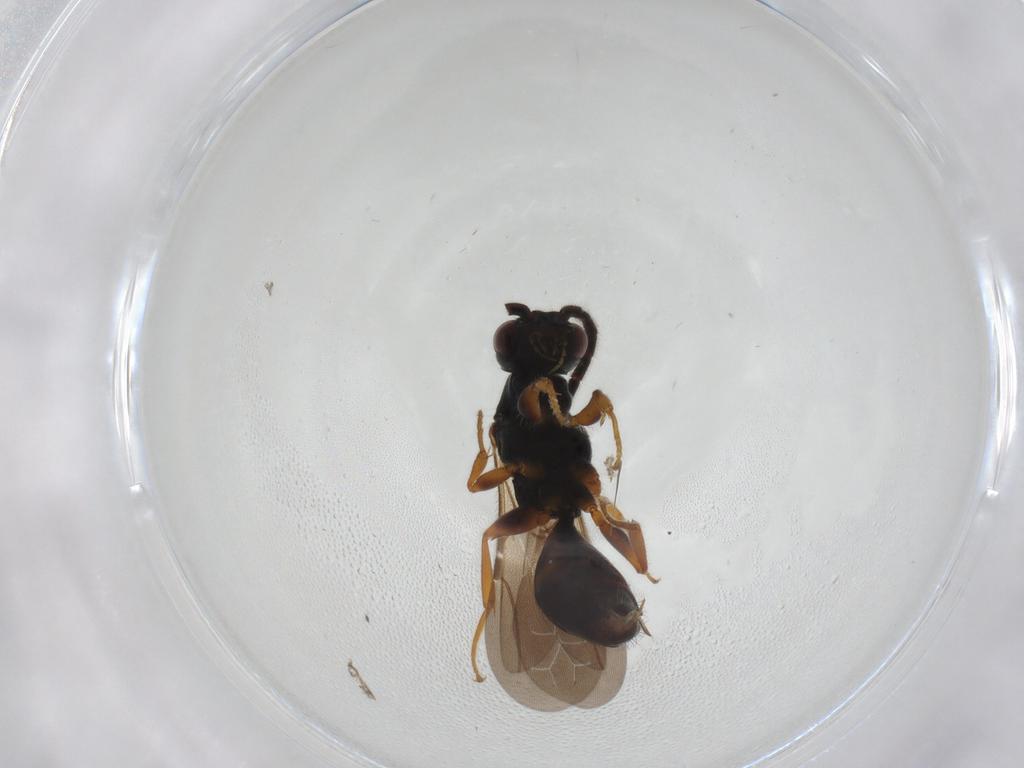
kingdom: Animalia
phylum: Arthropoda
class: Insecta
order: Hymenoptera
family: Bethylidae
